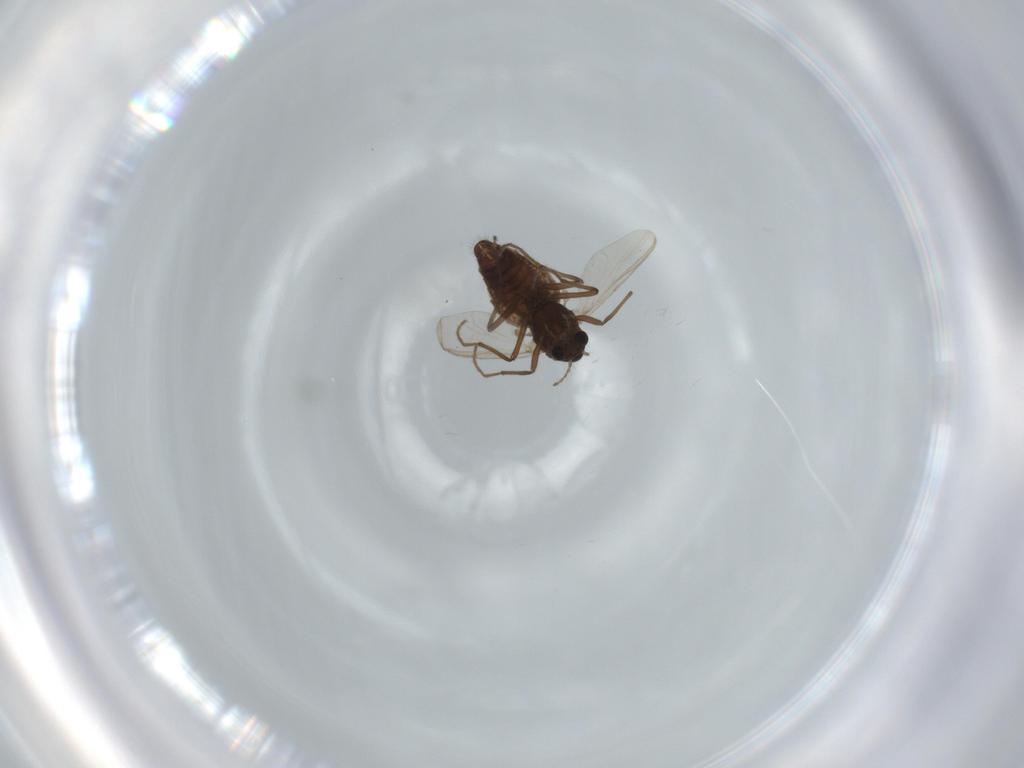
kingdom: Animalia
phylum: Arthropoda
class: Insecta
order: Diptera
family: Chironomidae
